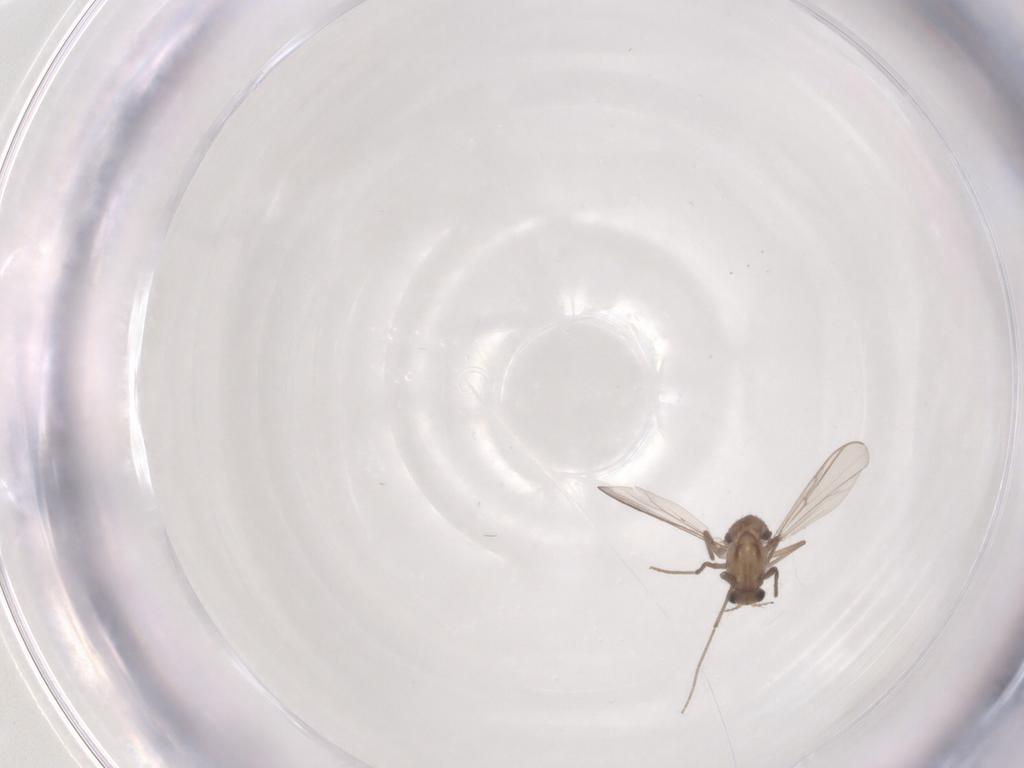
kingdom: Animalia
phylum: Arthropoda
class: Insecta
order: Diptera
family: Chironomidae
